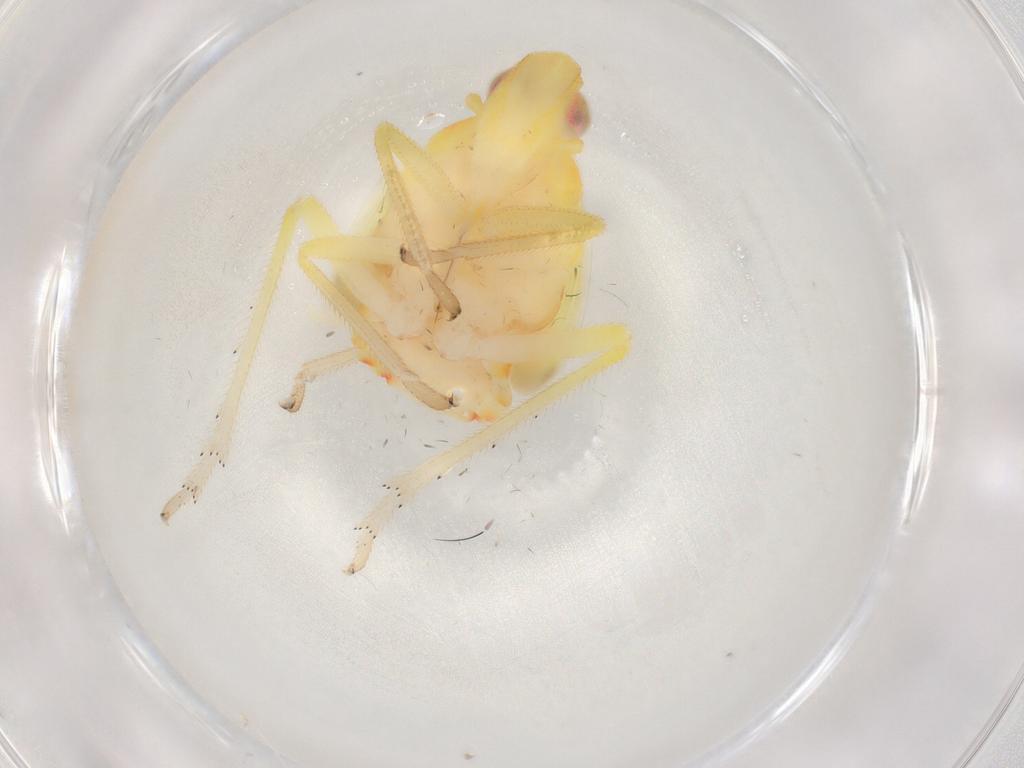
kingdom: Animalia
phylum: Arthropoda
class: Insecta
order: Hemiptera
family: Tropiduchidae
